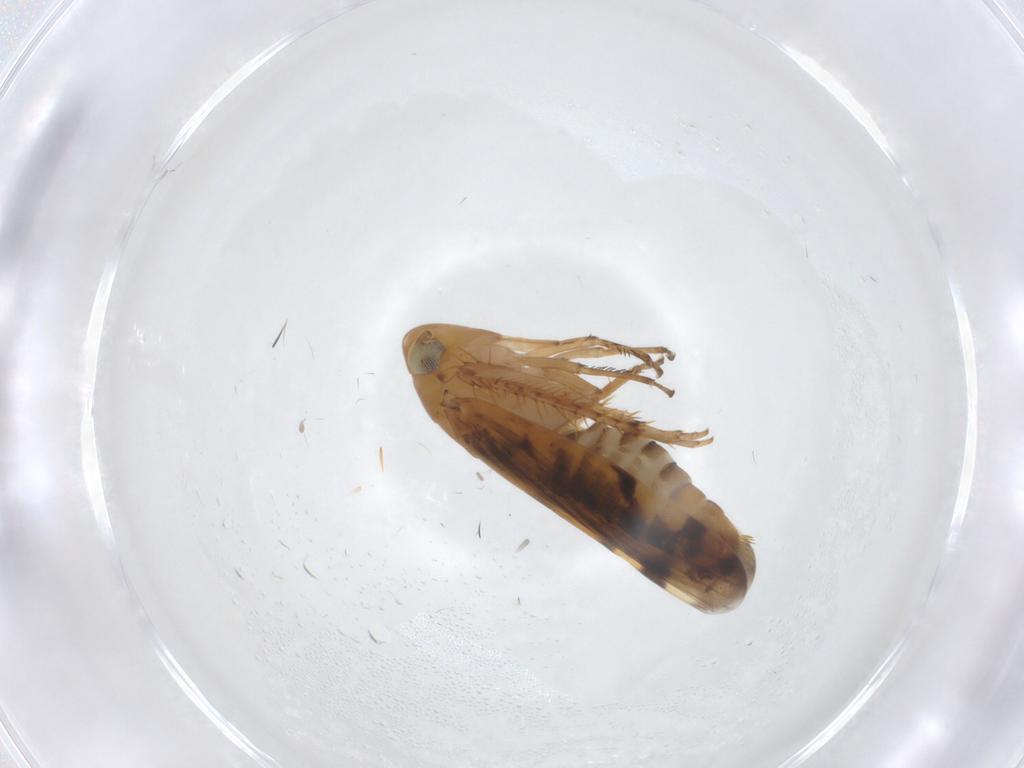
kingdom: Animalia
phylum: Arthropoda
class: Insecta
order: Hemiptera
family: Cicadellidae
